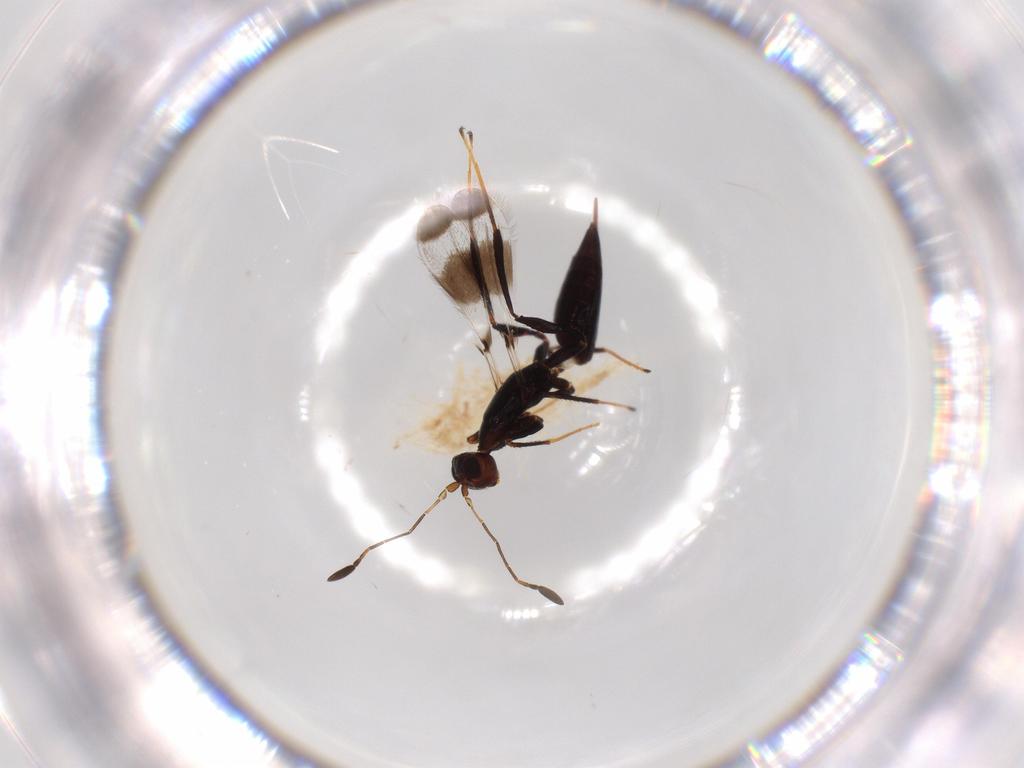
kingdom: Animalia
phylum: Arthropoda
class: Insecta
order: Hymenoptera
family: Mymaridae
